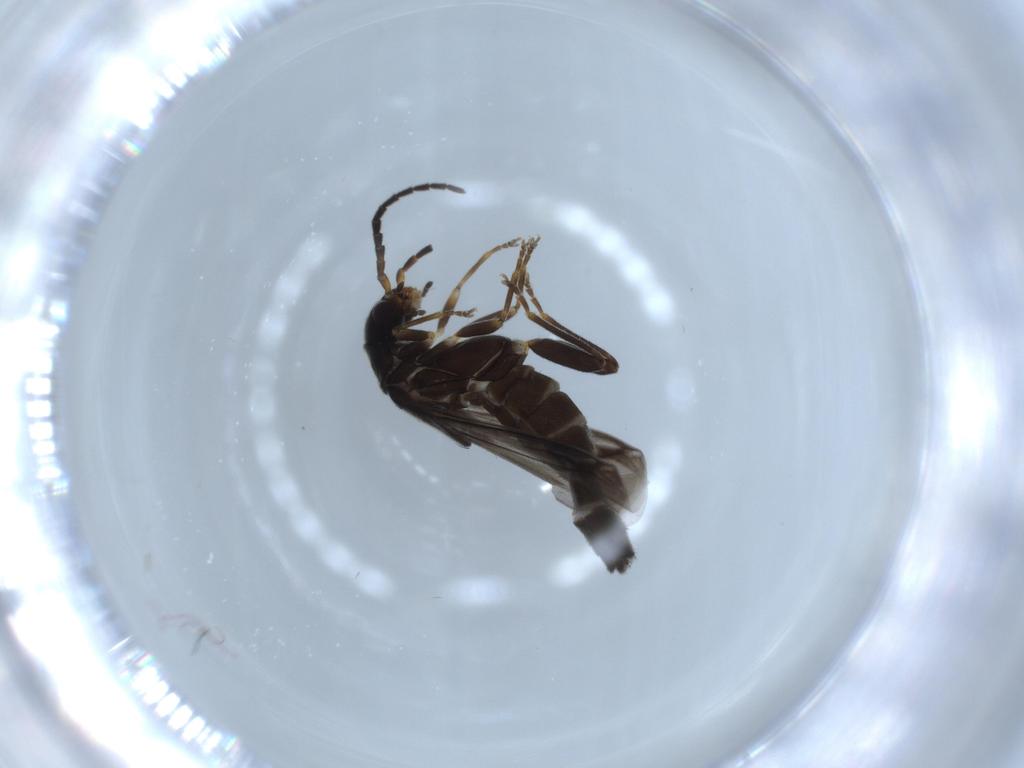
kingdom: Animalia
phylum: Arthropoda
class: Insecta
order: Coleoptera
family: Cantharidae
